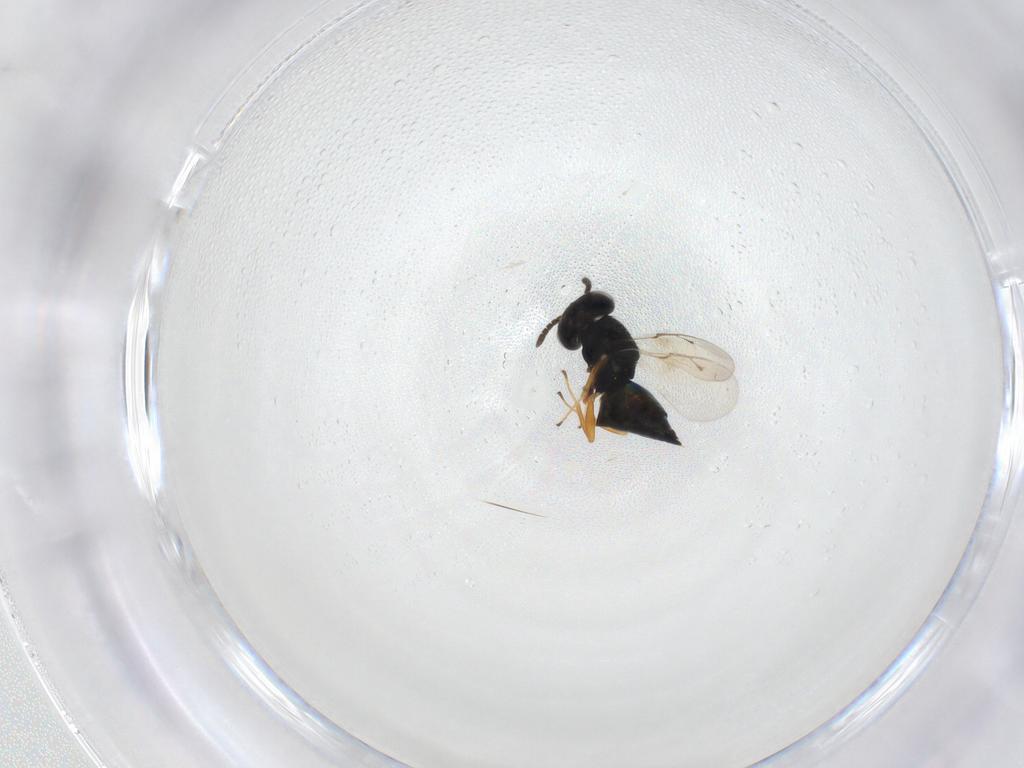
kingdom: Animalia
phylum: Arthropoda
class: Insecta
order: Hymenoptera
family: Pteromalidae
